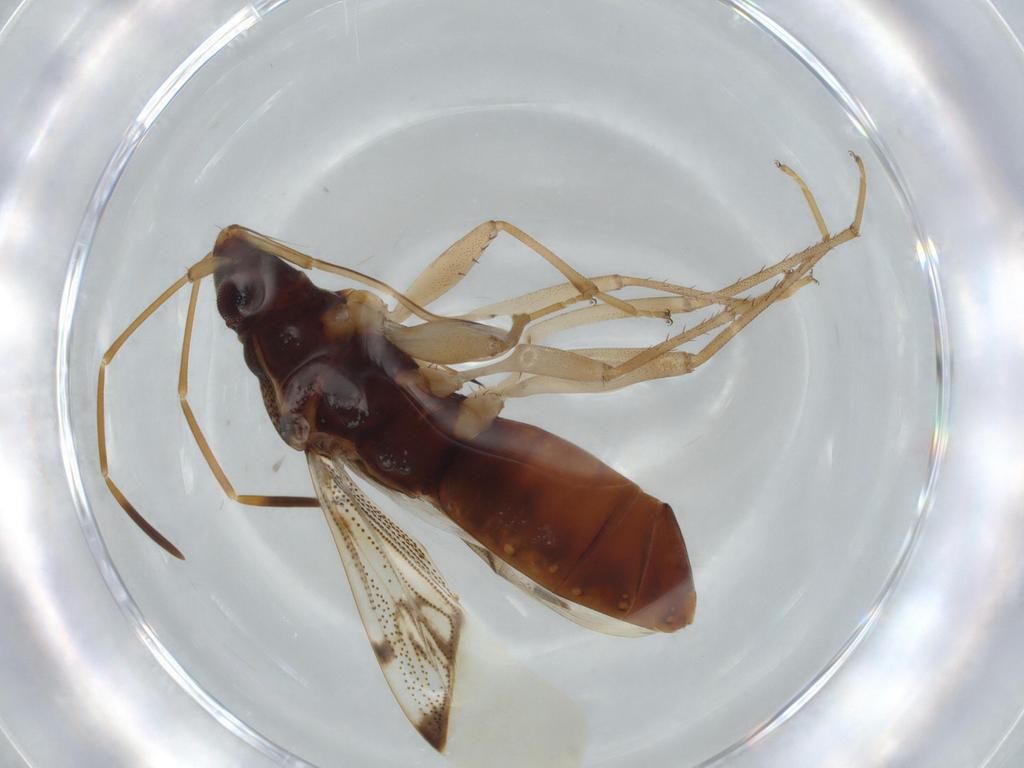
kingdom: Animalia
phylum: Arthropoda
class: Insecta
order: Hemiptera
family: Rhyparochromidae
